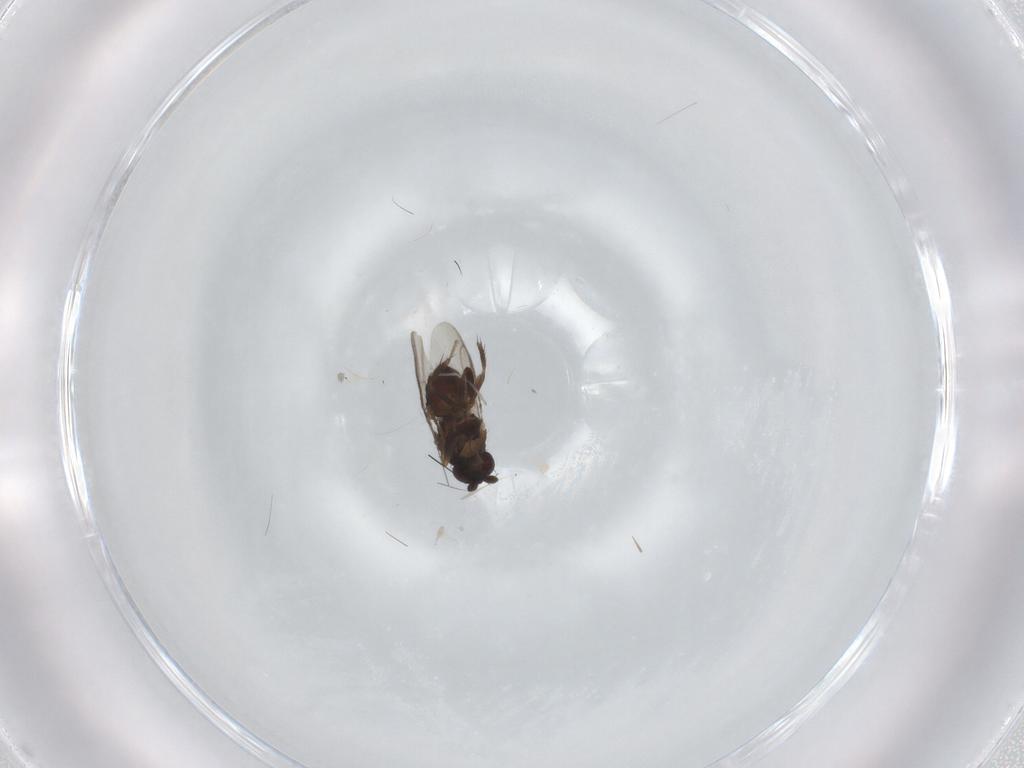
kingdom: Animalia
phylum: Arthropoda
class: Insecta
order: Diptera
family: Sphaeroceridae
